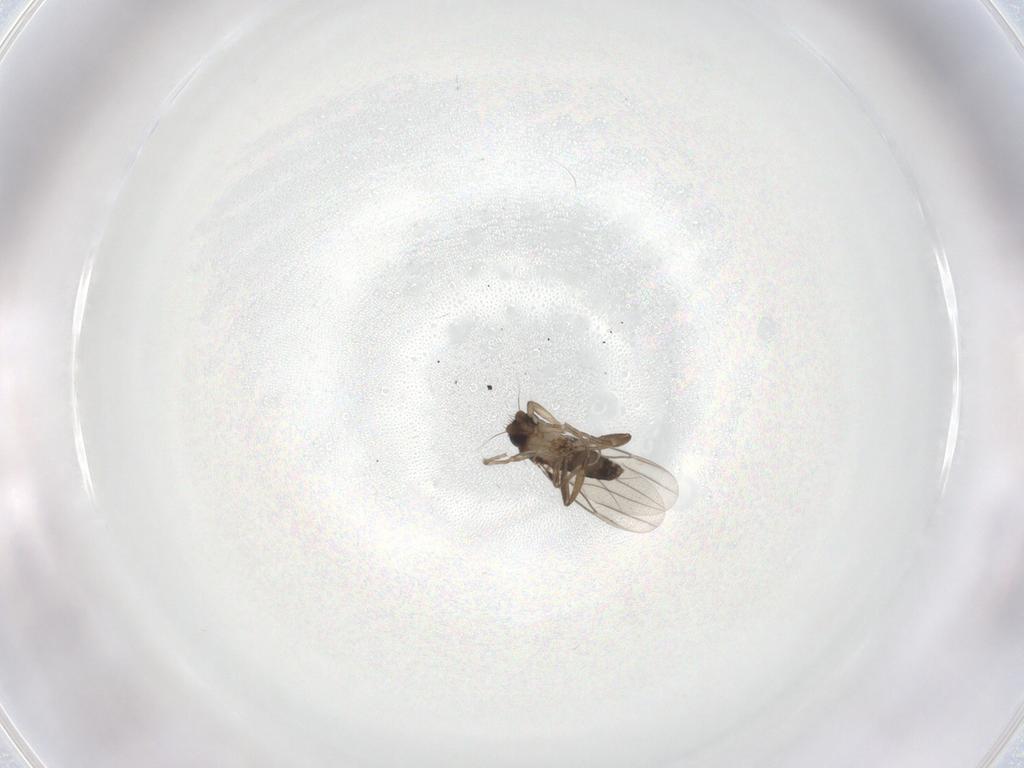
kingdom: Animalia
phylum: Arthropoda
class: Insecta
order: Diptera
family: Phoridae
